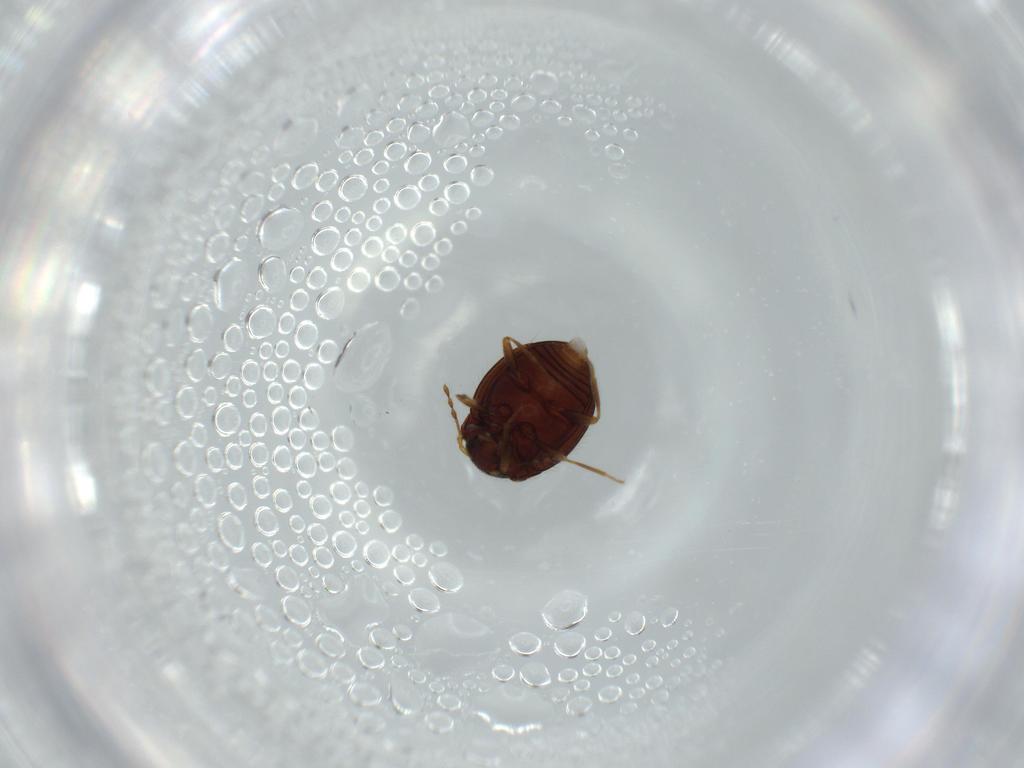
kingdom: Animalia
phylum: Arthropoda
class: Insecta
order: Coleoptera
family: Anamorphidae
